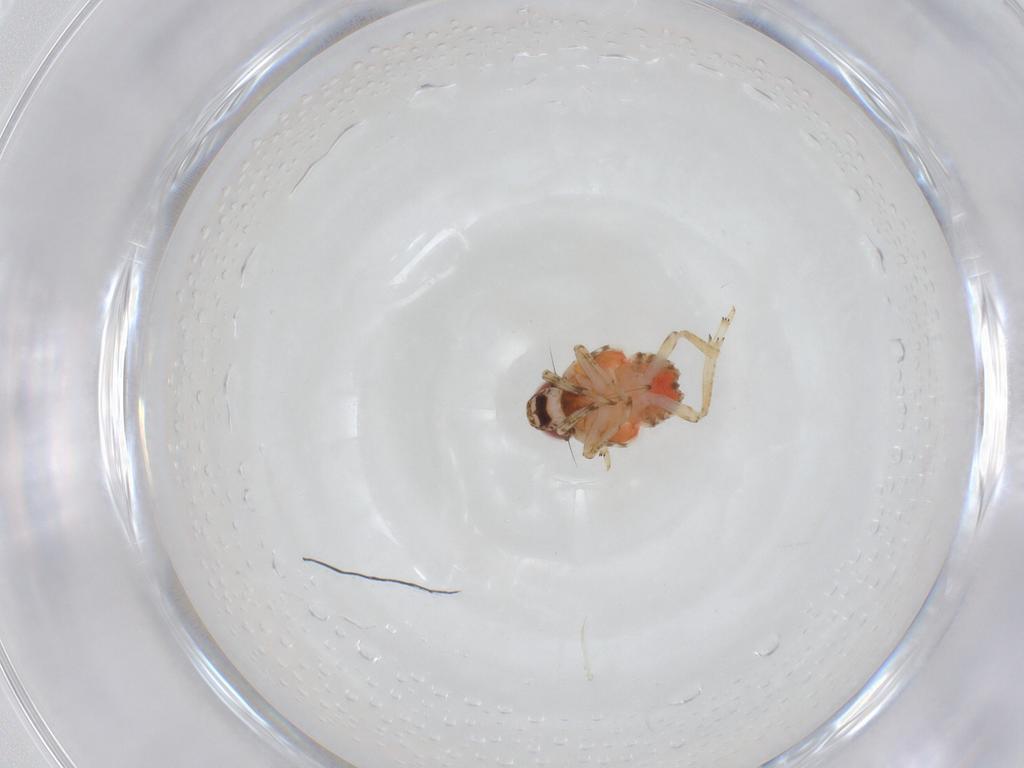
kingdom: Animalia
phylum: Arthropoda
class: Insecta
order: Hemiptera
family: Issidae
